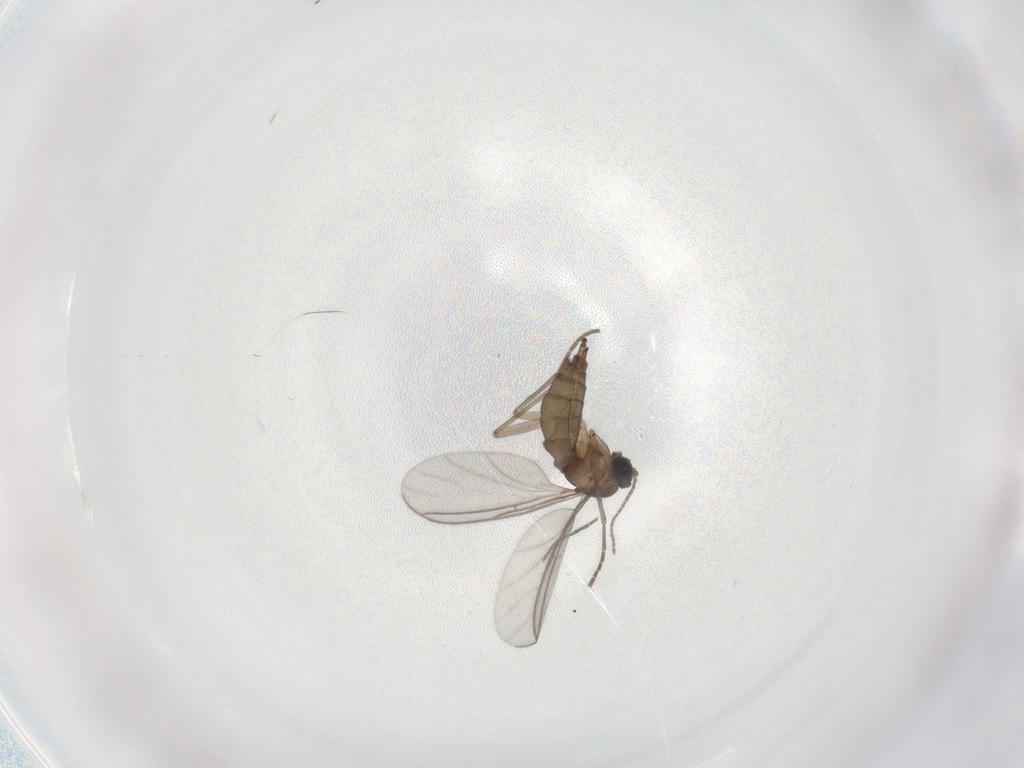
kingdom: Animalia
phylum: Arthropoda
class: Insecta
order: Diptera
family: Sciaridae
